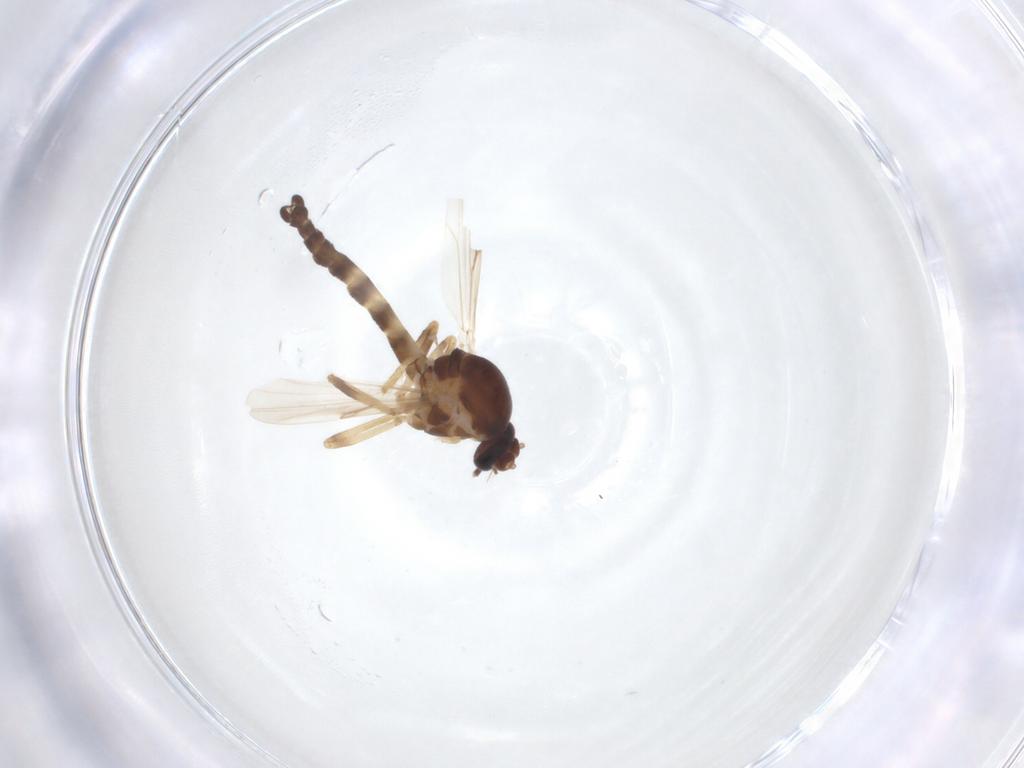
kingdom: Animalia
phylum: Arthropoda
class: Insecta
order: Diptera
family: Ceratopogonidae
